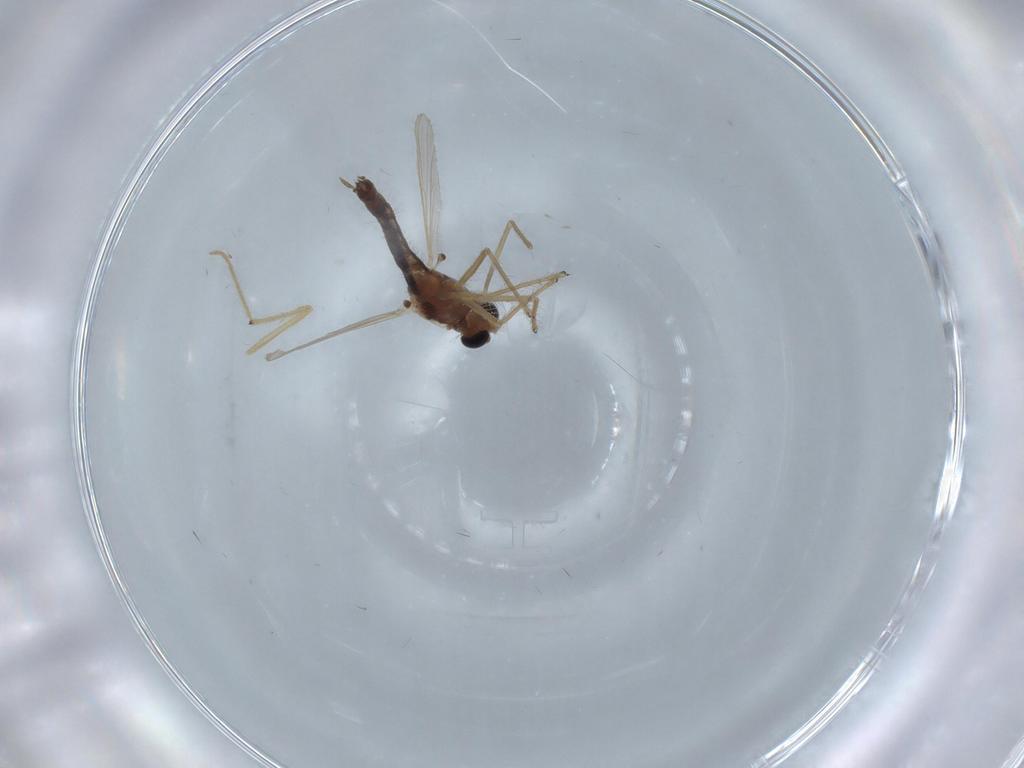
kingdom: Animalia
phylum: Arthropoda
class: Insecta
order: Diptera
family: Chironomidae
